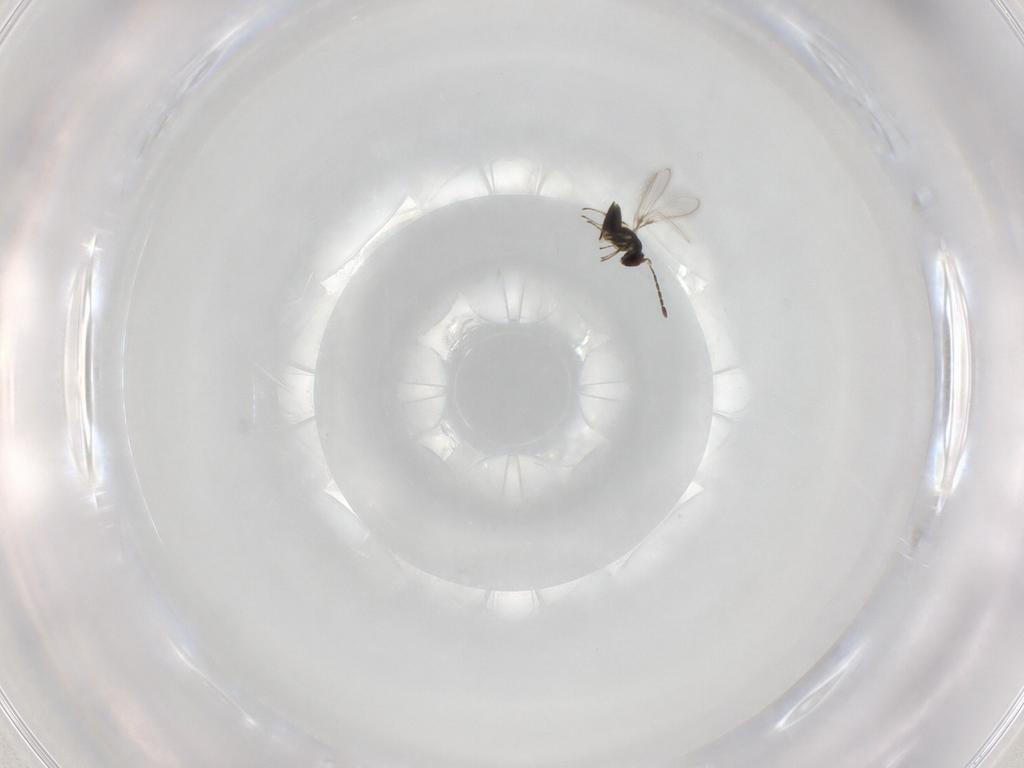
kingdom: Animalia
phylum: Arthropoda
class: Insecta
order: Hymenoptera
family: Mymaridae
